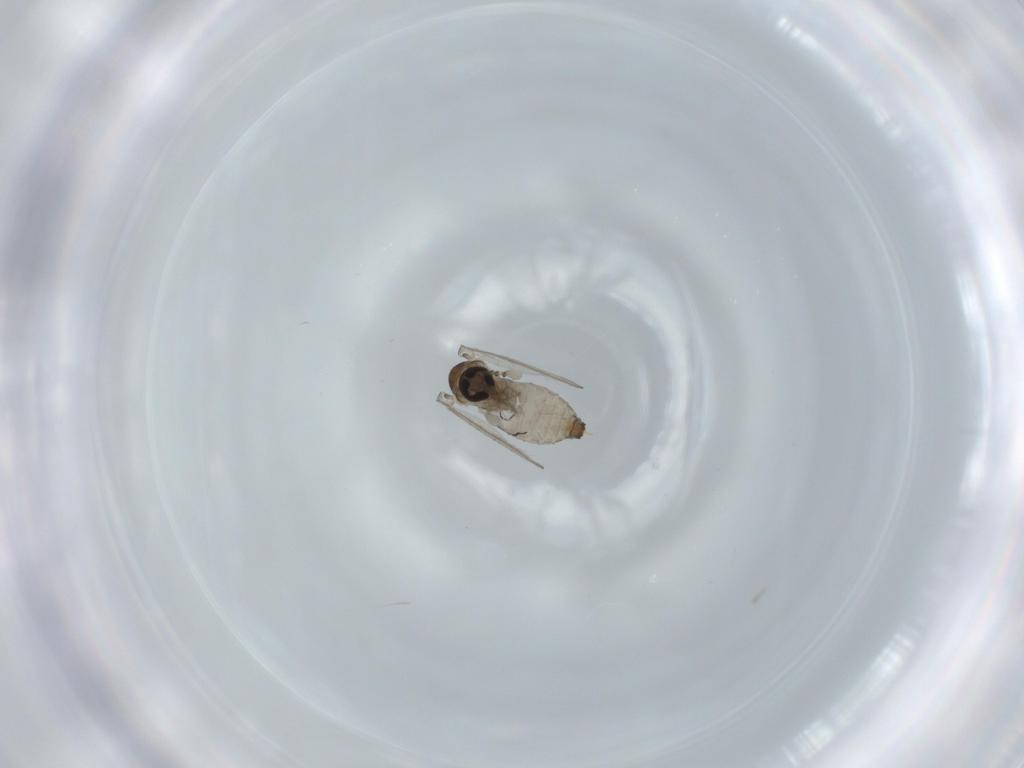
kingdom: Animalia
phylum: Arthropoda
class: Insecta
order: Diptera
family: Psychodidae
